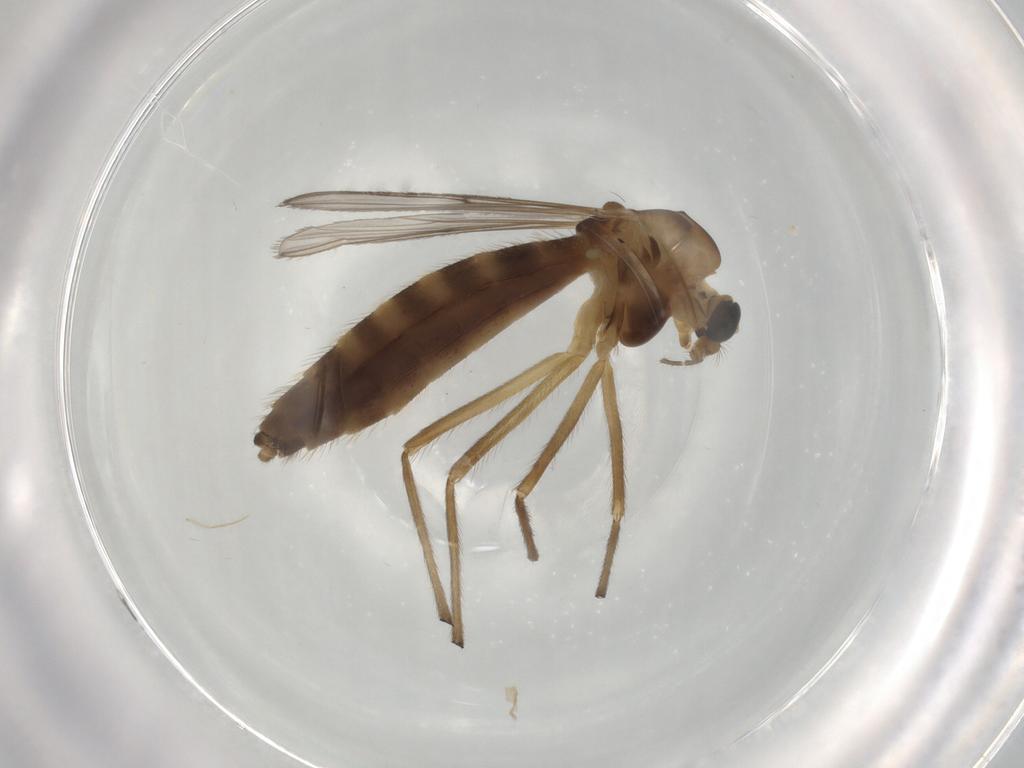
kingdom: Animalia
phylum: Arthropoda
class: Insecta
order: Diptera
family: Chironomidae
